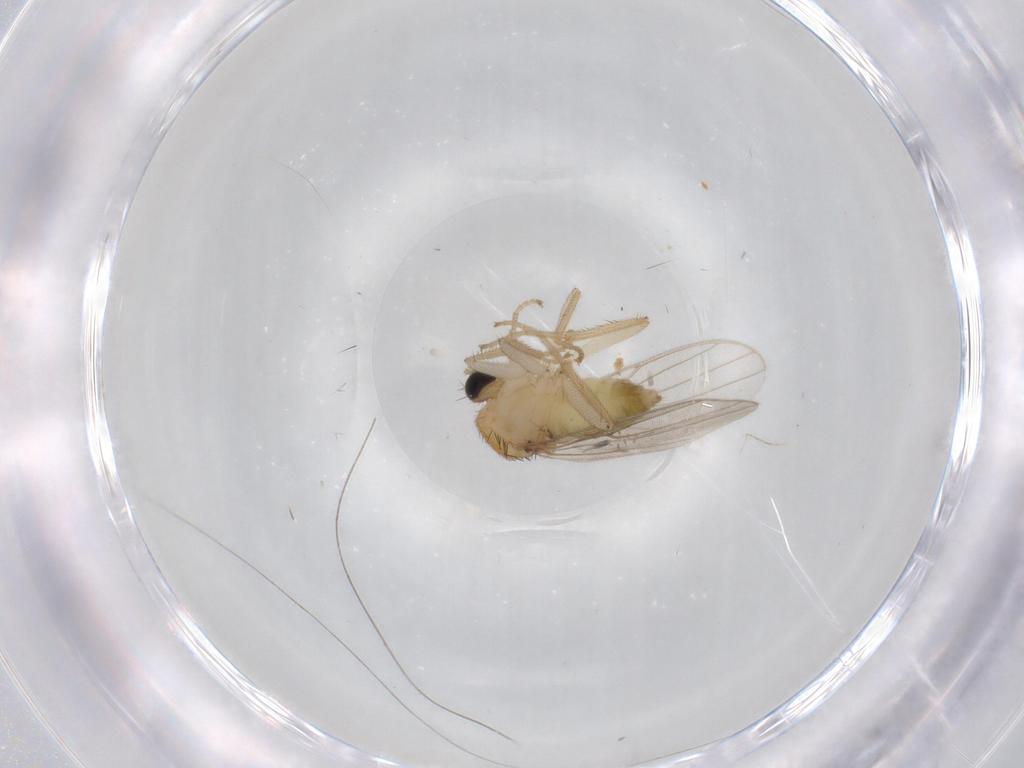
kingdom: Animalia
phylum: Arthropoda
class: Insecta
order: Diptera
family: Hybotidae
